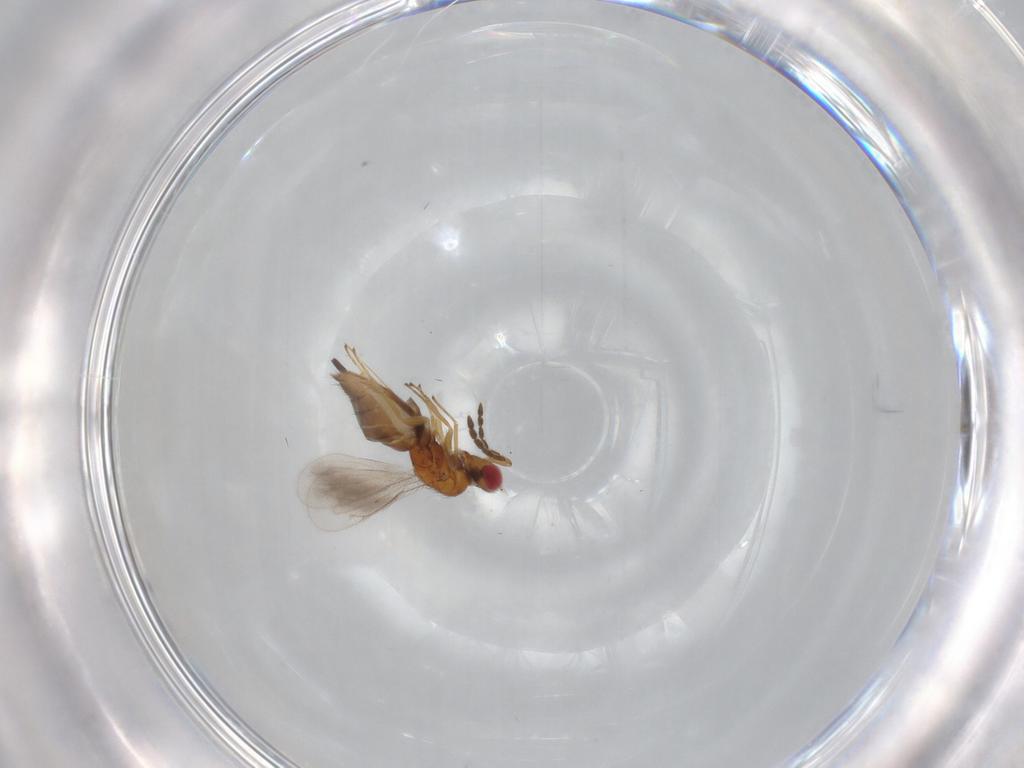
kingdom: Animalia
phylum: Arthropoda
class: Insecta
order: Hymenoptera
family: Eulophidae
